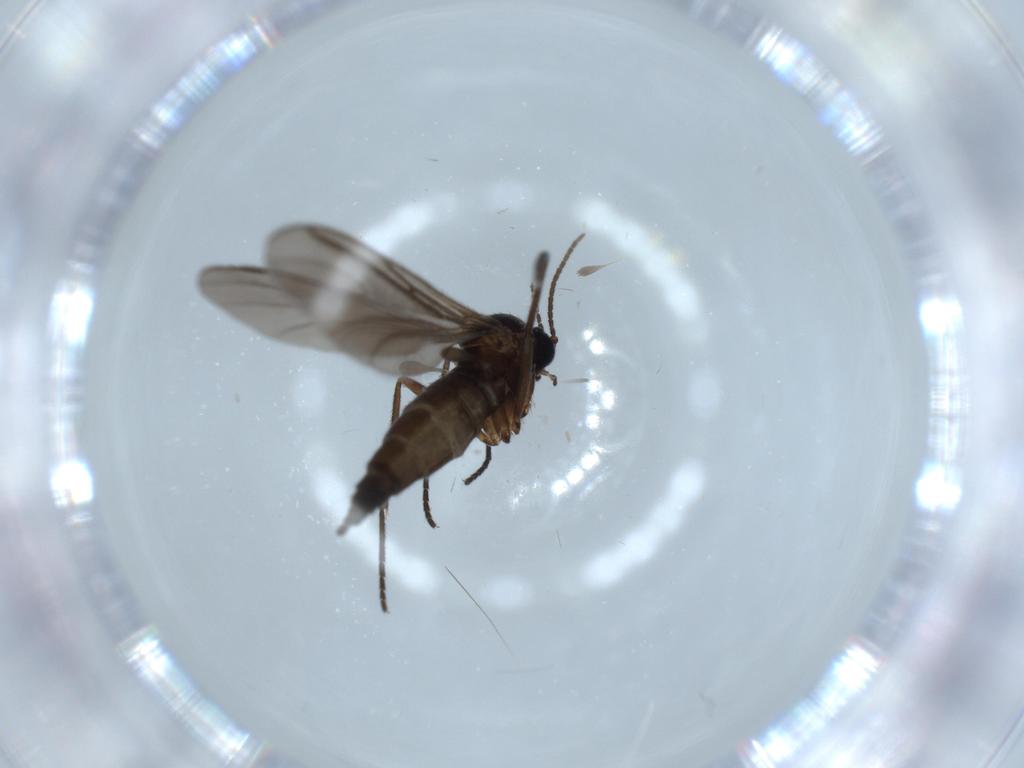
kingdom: Animalia
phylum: Arthropoda
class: Insecta
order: Diptera
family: Sciaridae
